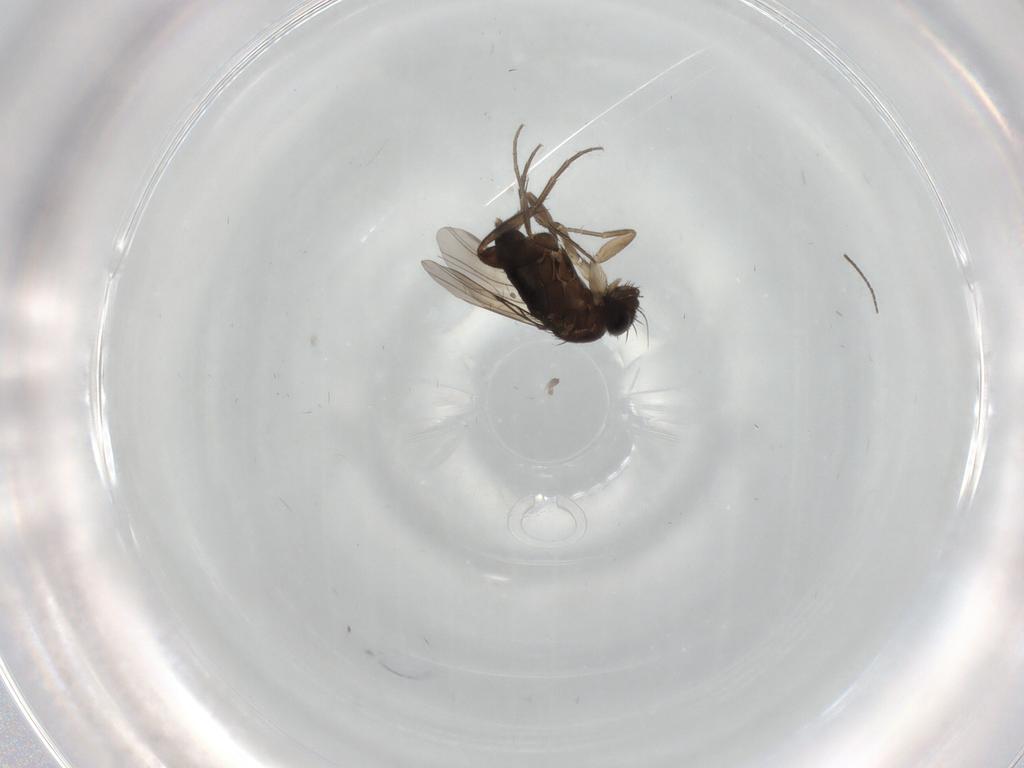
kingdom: Animalia
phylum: Arthropoda
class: Insecta
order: Diptera
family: Phoridae
